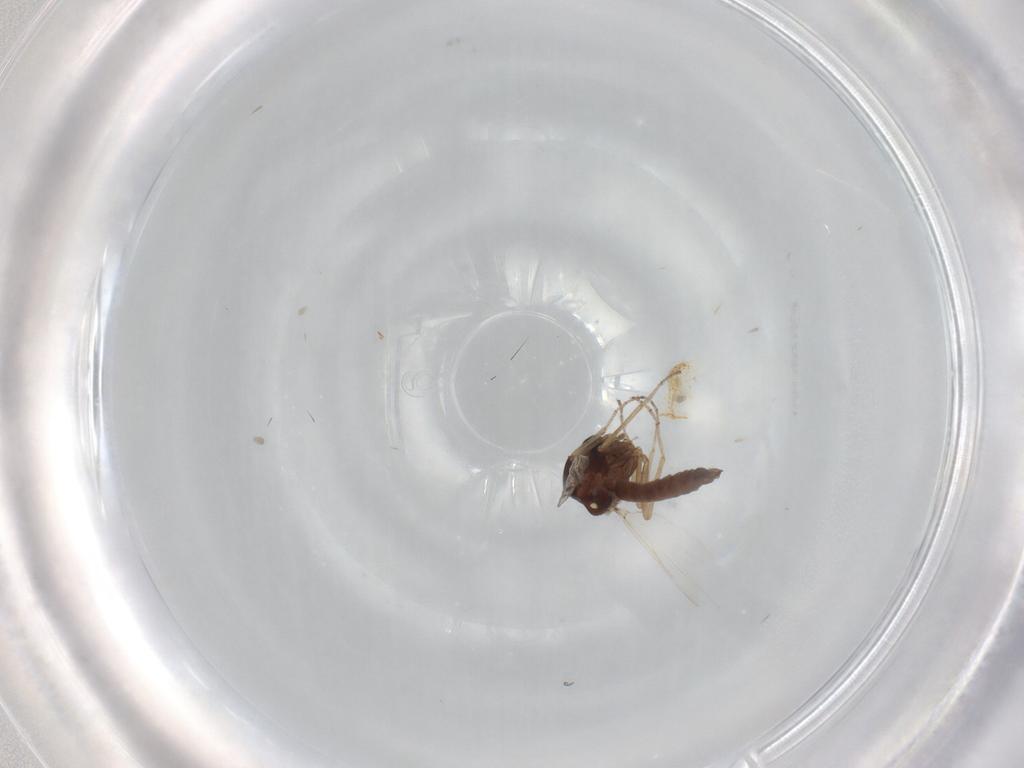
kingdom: Animalia
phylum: Arthropoda
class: Insecta
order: Diptera
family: Ceratopogonidae
